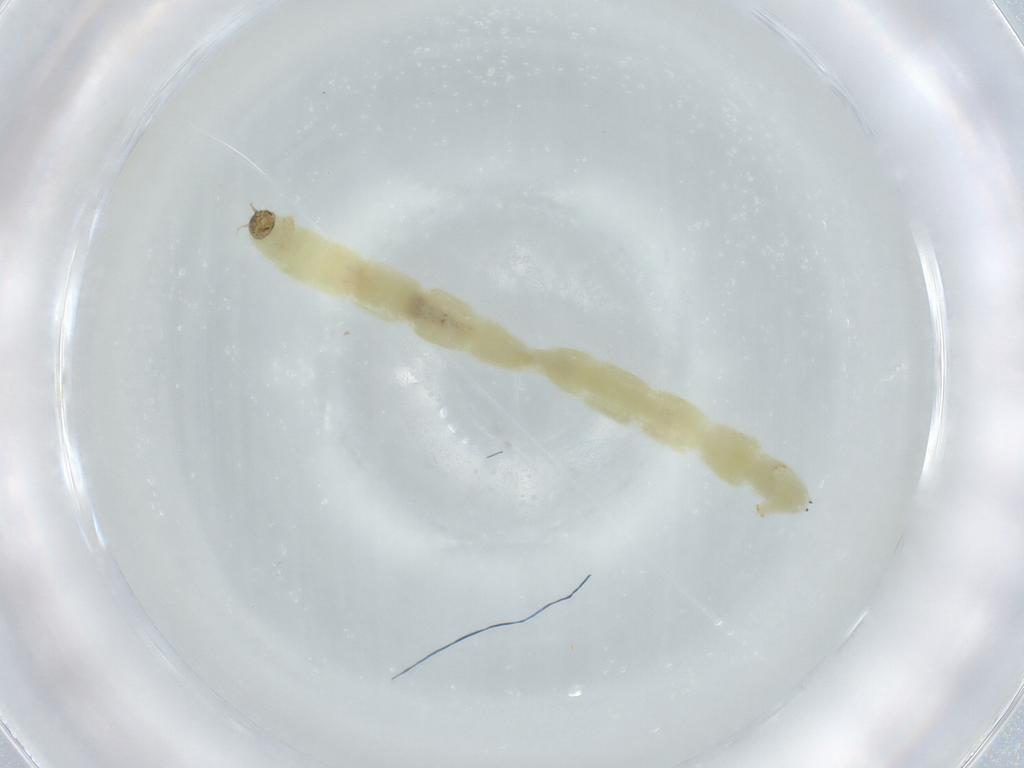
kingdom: Animalia
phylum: Arthropoda
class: Insecta
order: Diptera
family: Chironomidae
